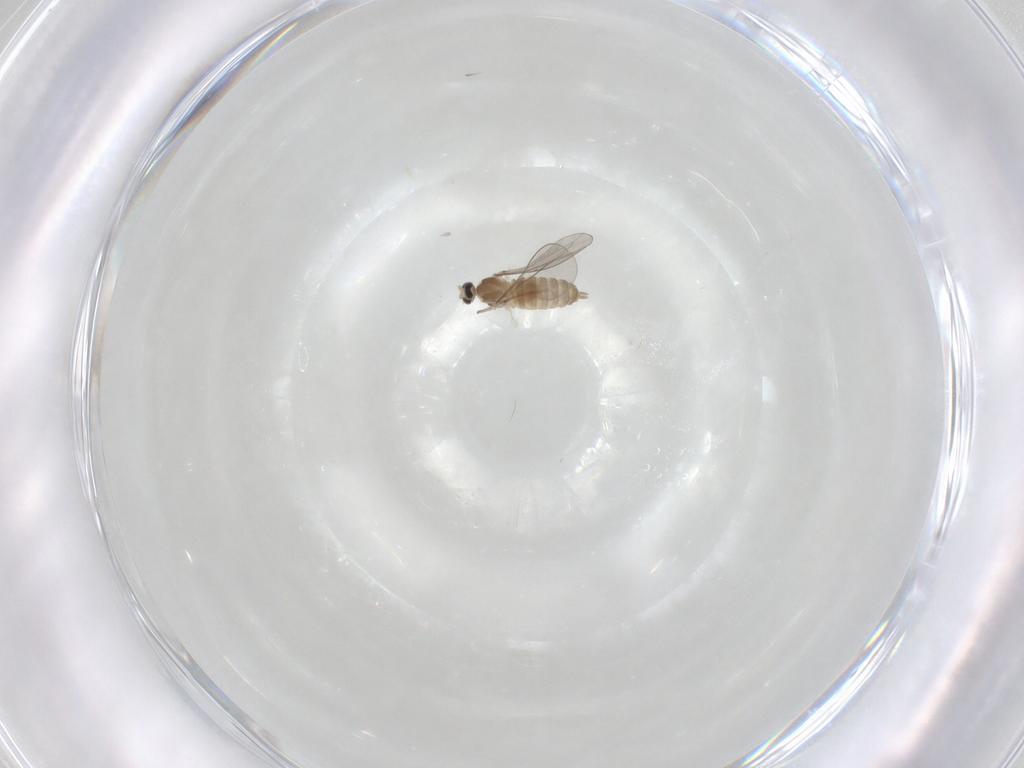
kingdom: Animalia
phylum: Arthropoda
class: Insecta
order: Diptera
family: Cecidomyiidae
